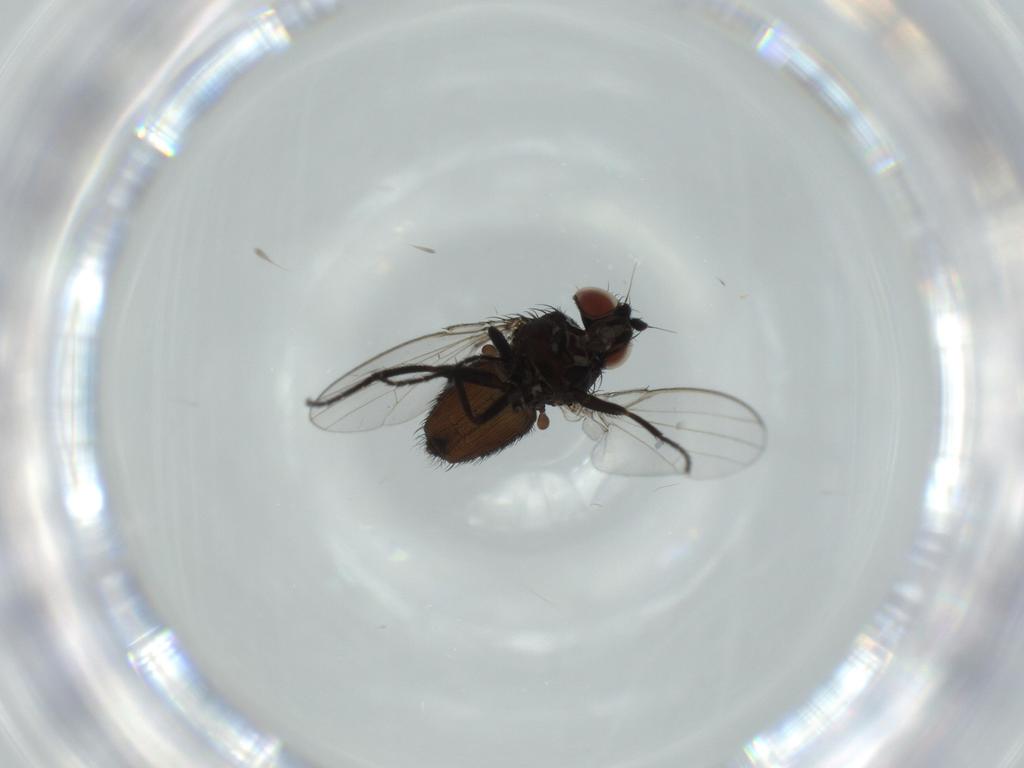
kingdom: Animalia
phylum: Arthropoda
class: Insecta
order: Diptera
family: Milichiidae
